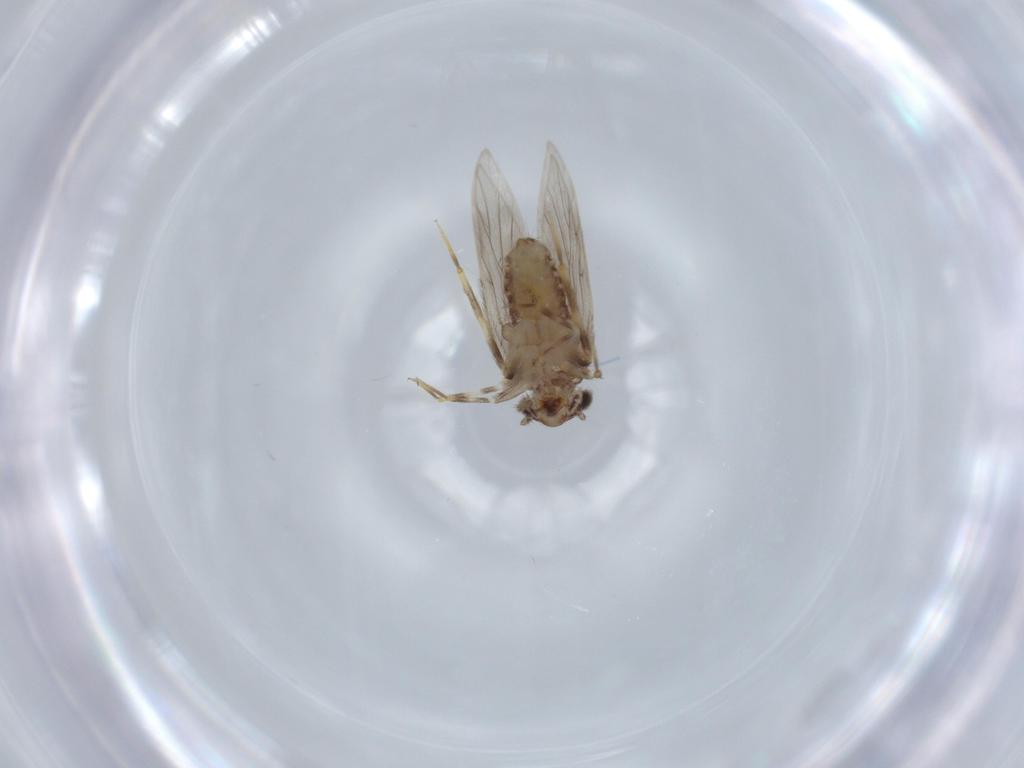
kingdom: Animalia
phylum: Arthropoda
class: Insecta
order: Psocodea
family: Lepidopsocidae
